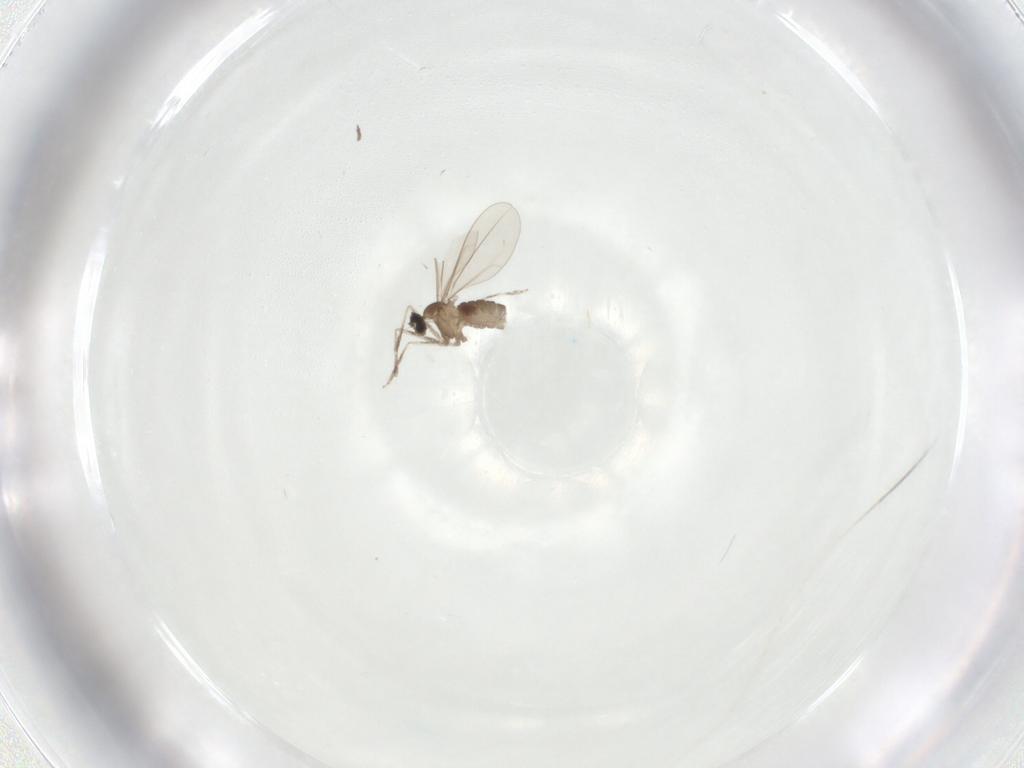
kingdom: Animalia
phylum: Arthropoda
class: Insecta
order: Diptera
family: Cecidomyiidae
